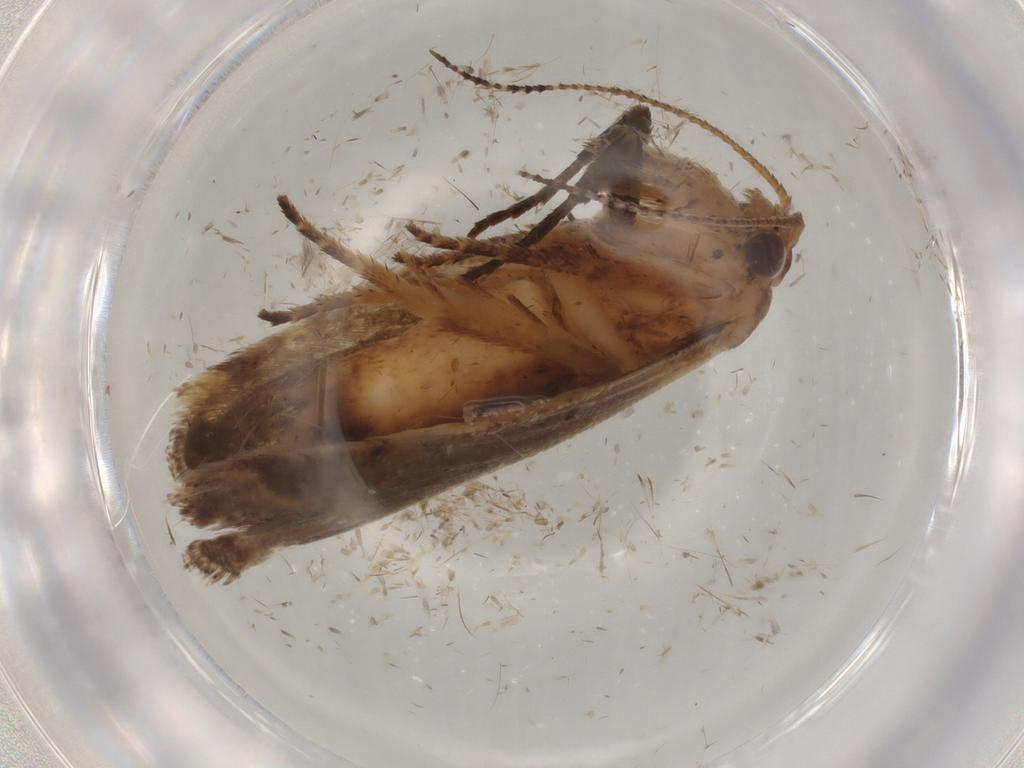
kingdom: Animalia
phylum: Arthropoda
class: Insecta
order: Lepidoptera
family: Gelechiidae
